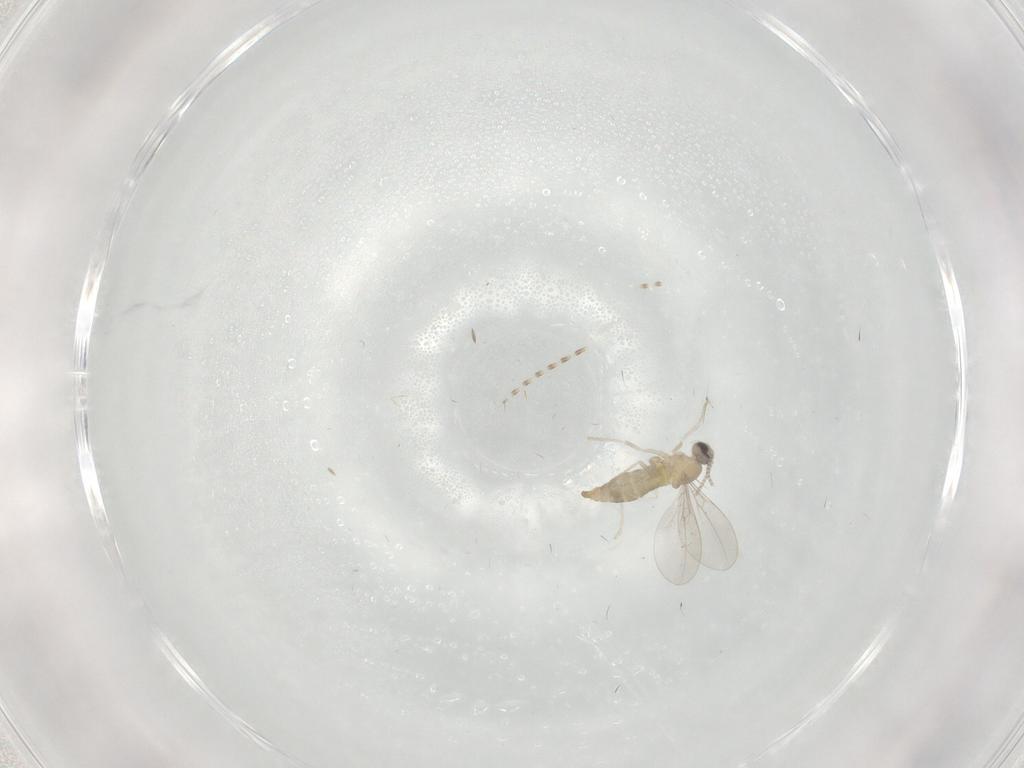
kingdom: Animalia
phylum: Arthropoda
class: Insecta
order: Diptera
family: Cecidomyiidae
